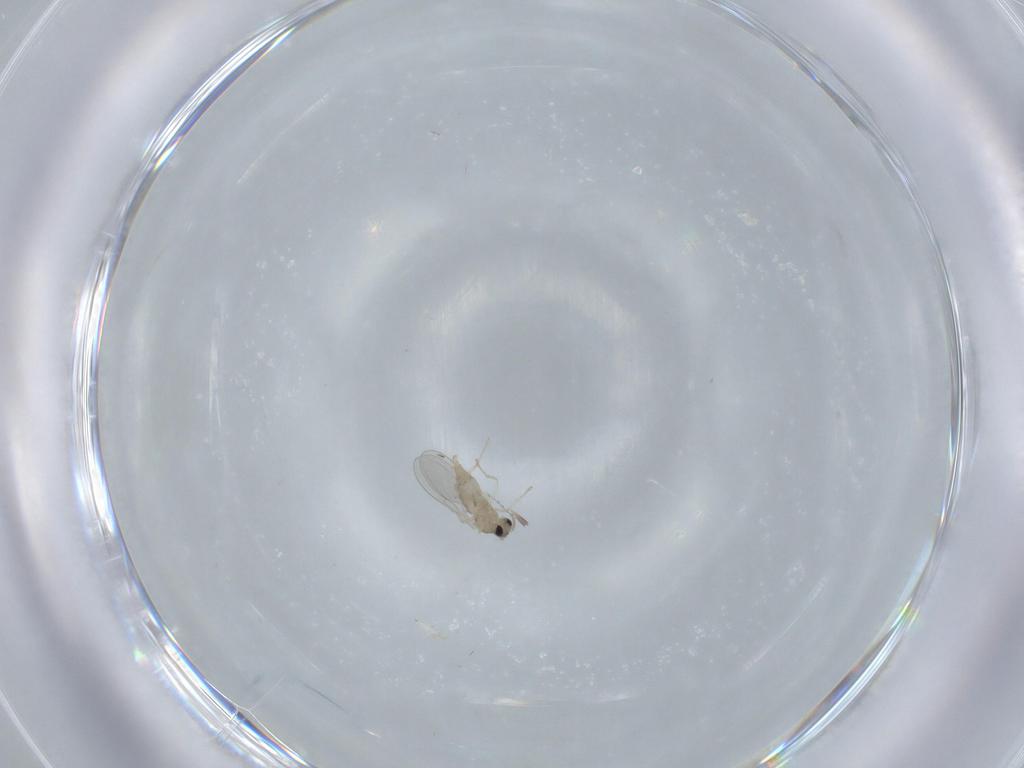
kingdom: Animalia
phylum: Arthropoda
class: Insecta
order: Diptera
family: Cecidomyiidae
